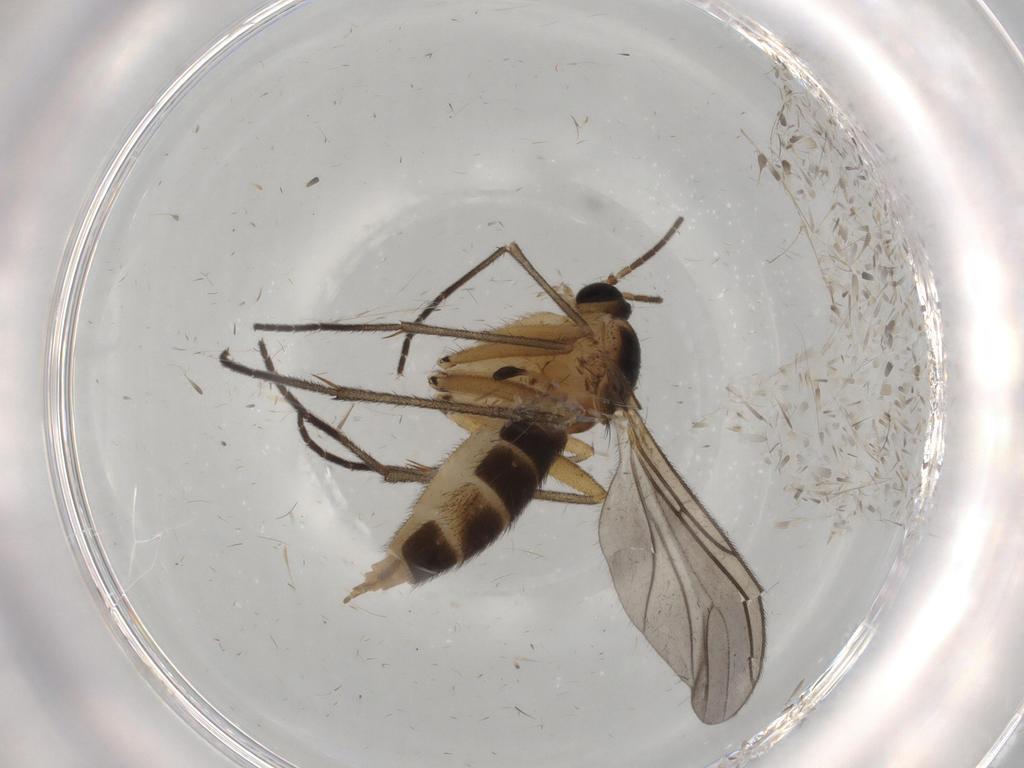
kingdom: Animalia
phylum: Arthropoda
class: Insecta
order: Diptera
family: Sciaridae
